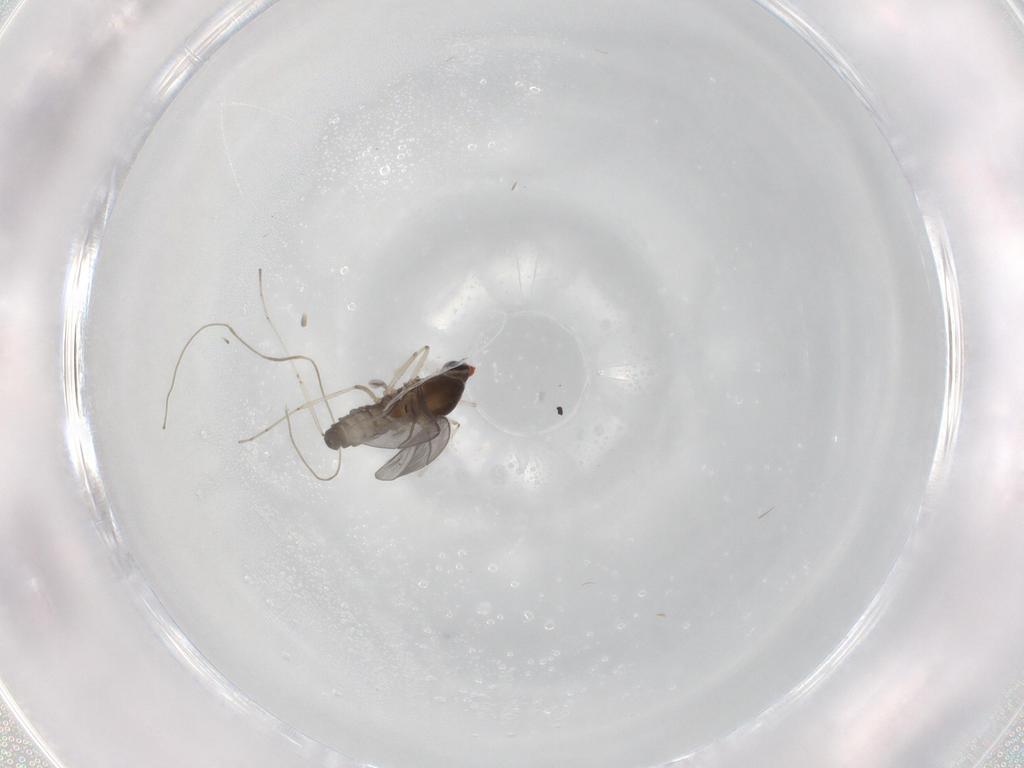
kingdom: Animalia
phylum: Arthropoda
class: Insecta
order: Diptera
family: Cecidomyiidae
